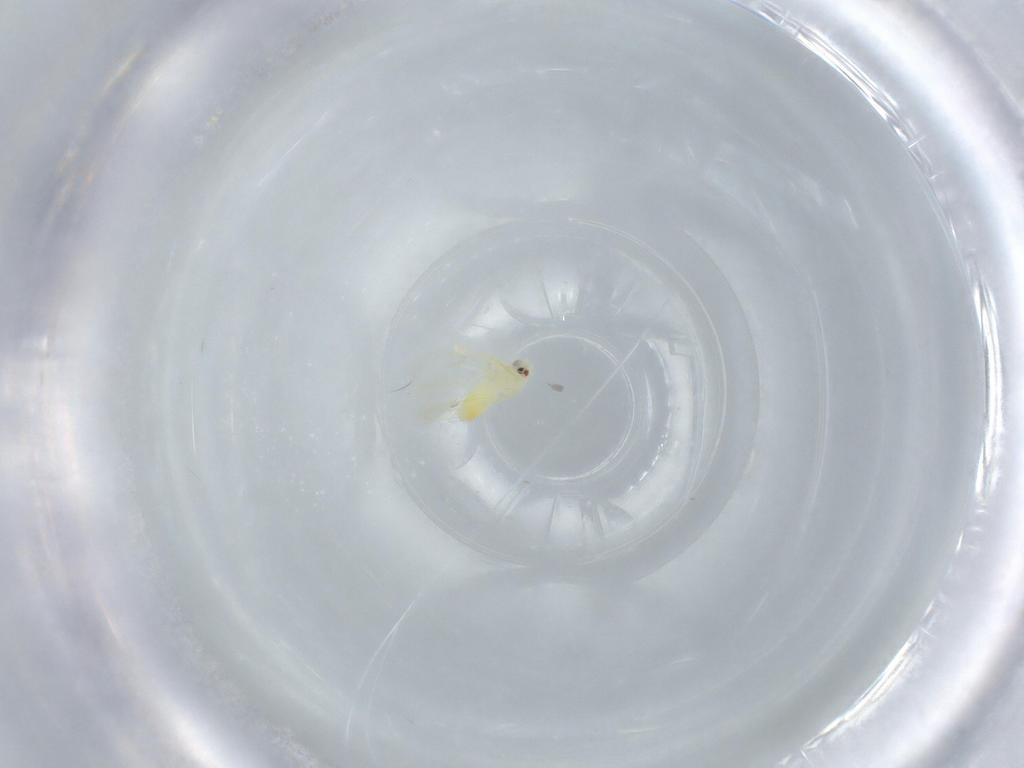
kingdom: Animalia
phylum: Arthropoda
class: Insecta
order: Hemiptera
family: Aleyrodidae
